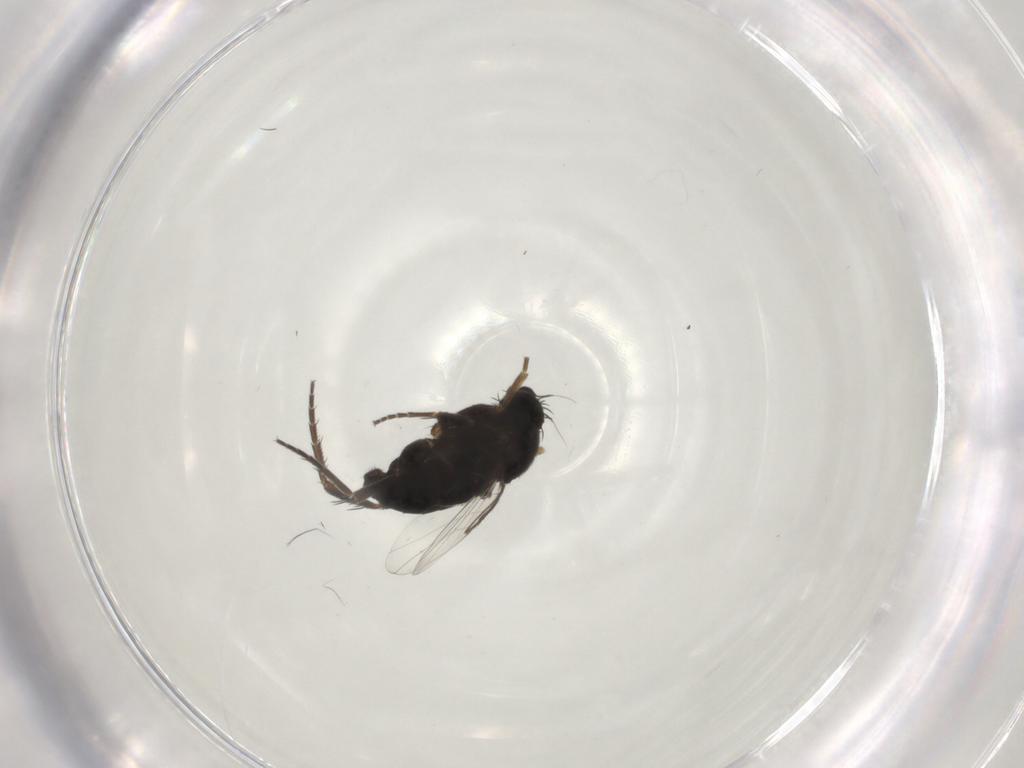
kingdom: Animalia
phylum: Arthropoda
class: Insecta
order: Diptera
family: Phoridae
